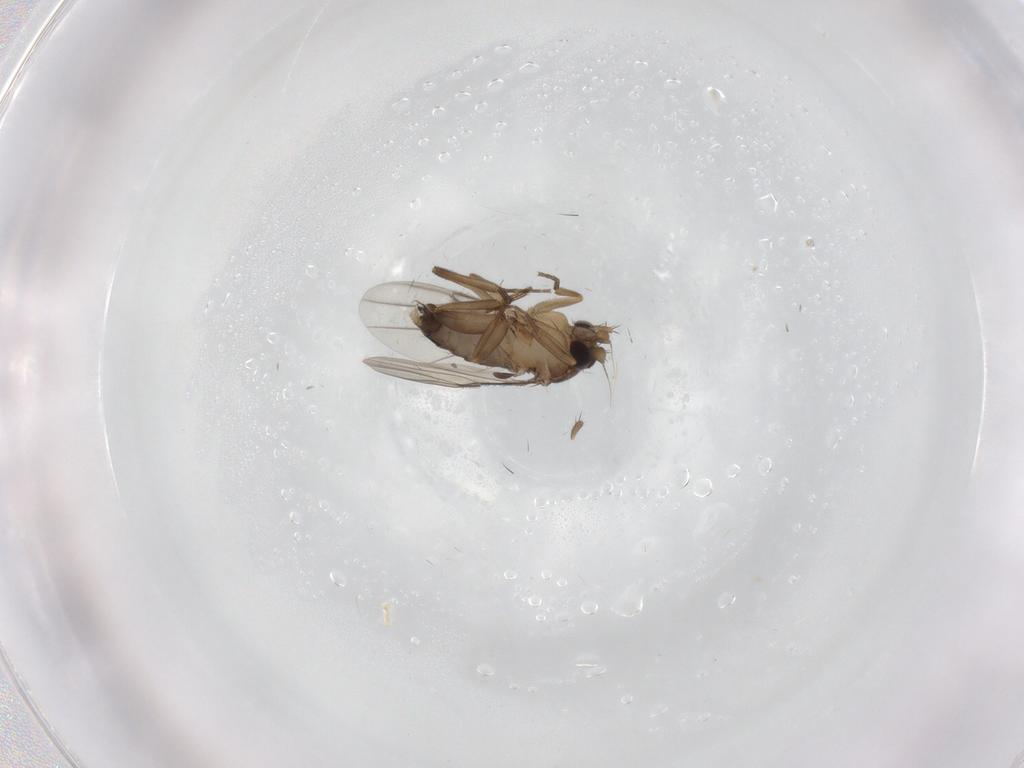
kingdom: Animalia
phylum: Arthropoda
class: Insecta
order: Diptera
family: Phoridae
